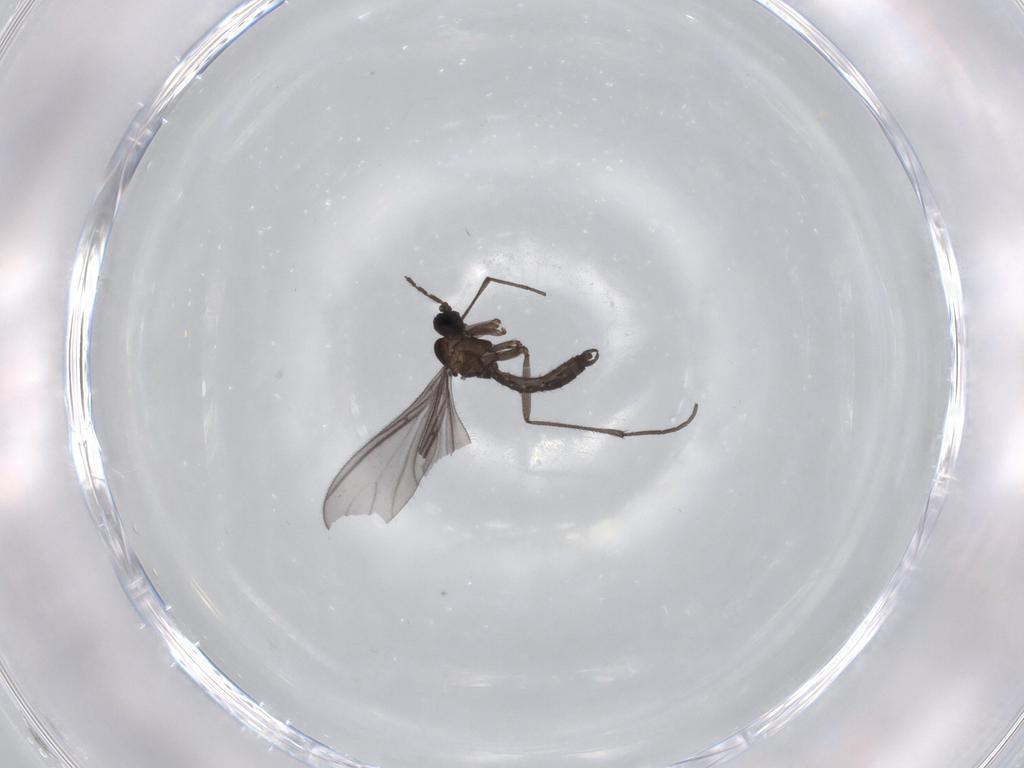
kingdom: Animalia
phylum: Arthropoda
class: Insecta
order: Diptera
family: Sciaridae
